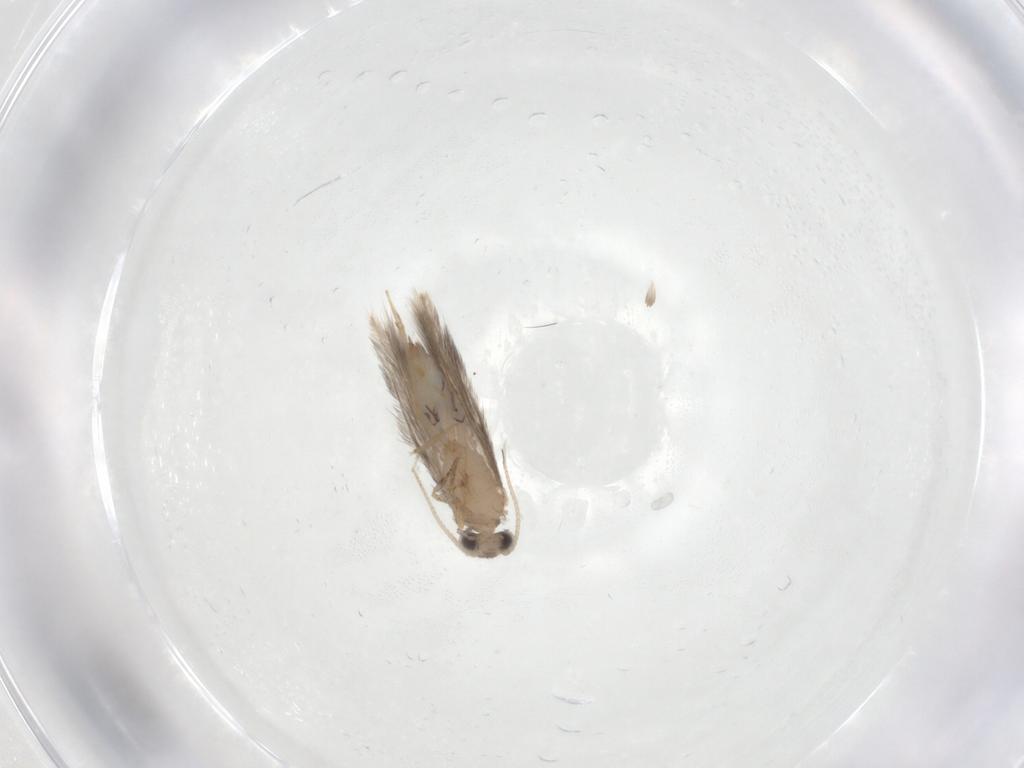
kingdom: Animalia
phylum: Arthropoda
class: Insecta
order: Trichoptera
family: Hydroptilidae
